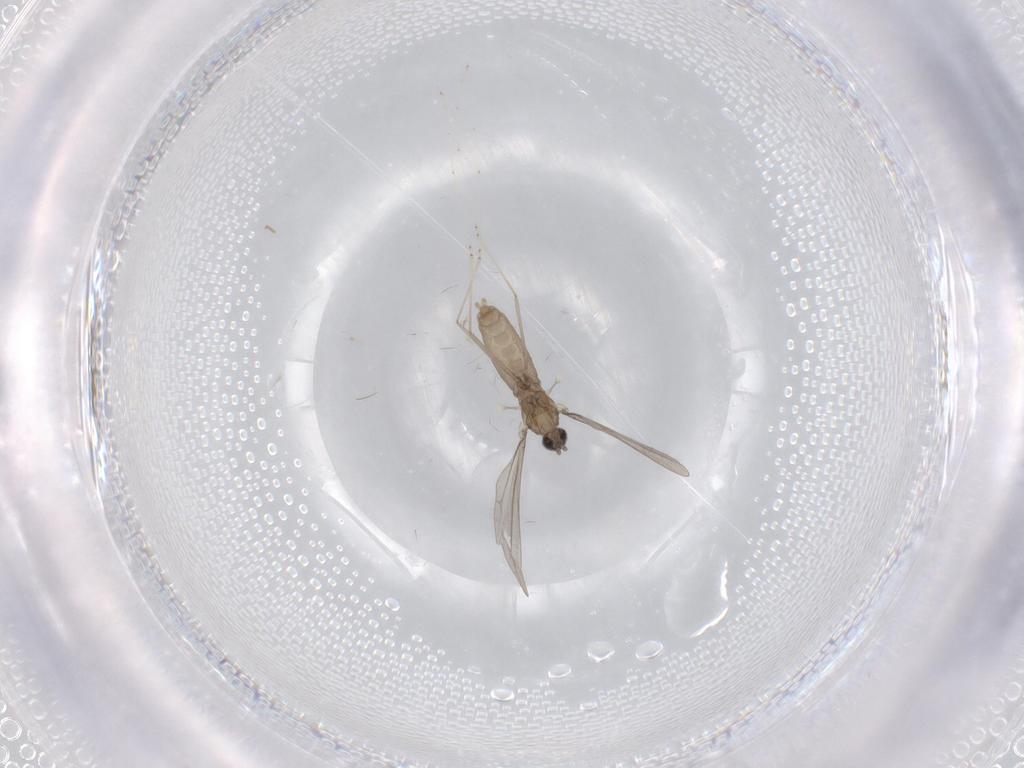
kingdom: Animalia
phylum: Arthropoda
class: Insecta
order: Diptera
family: Cecidomyiidae
